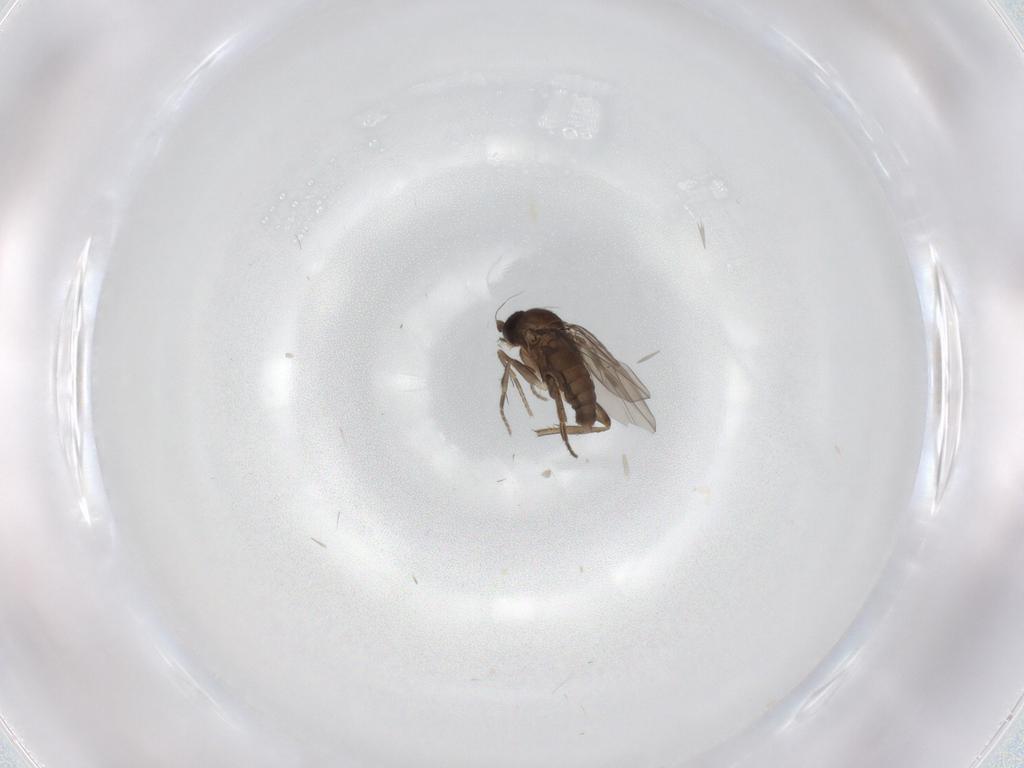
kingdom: Animalia
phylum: Arthropoda
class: Insecta
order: Diptera
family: Phoridae
